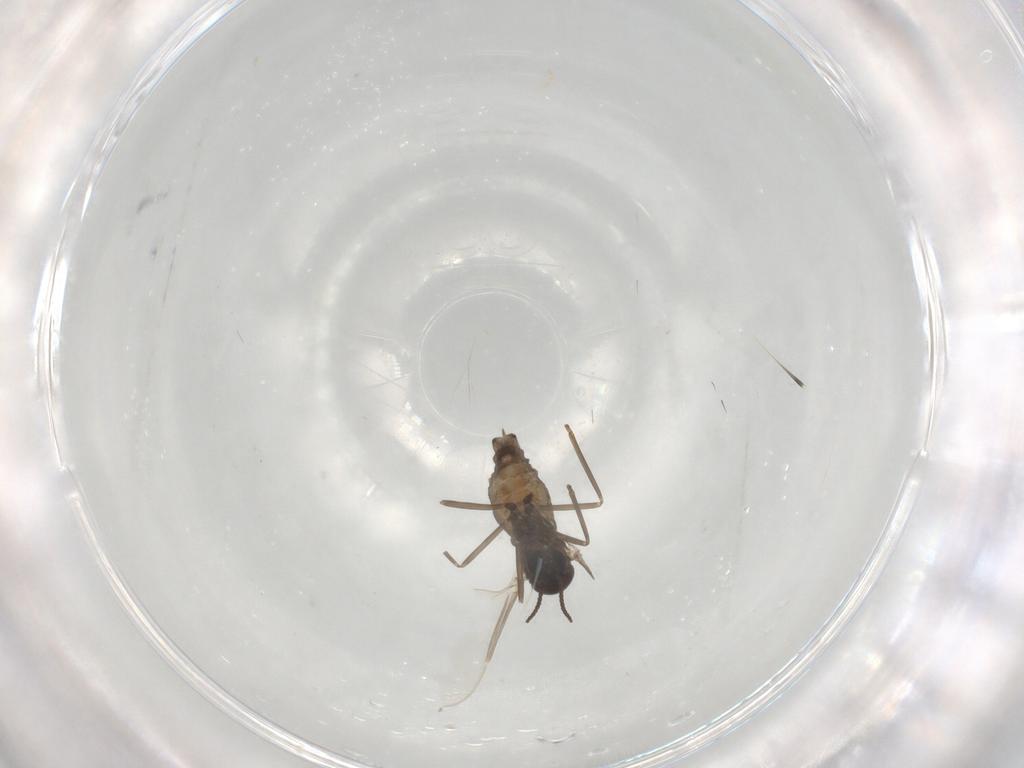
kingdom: Animalia
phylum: Arthropoda
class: Insecta
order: Diptera
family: Cecidomyiidae
